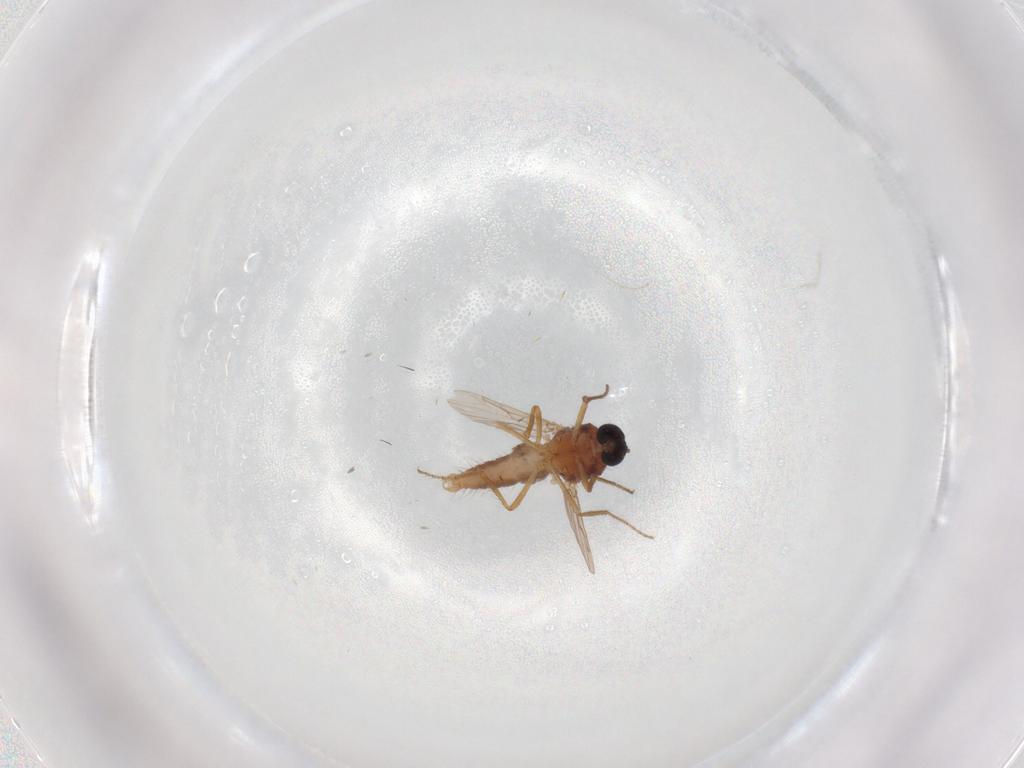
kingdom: Animalia
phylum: Arthropoda
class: Insecta
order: Diptera
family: Ceratopogonidae
